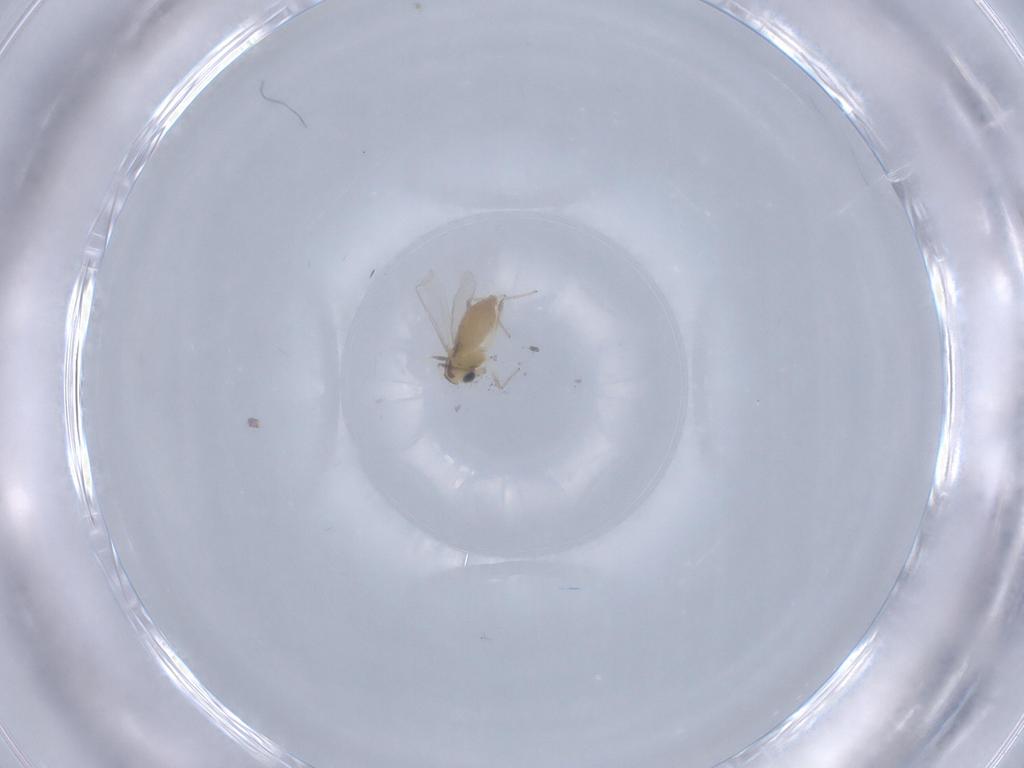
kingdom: Animalia
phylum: Arthropoda
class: Insecta
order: Diptera
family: Chironomidae
